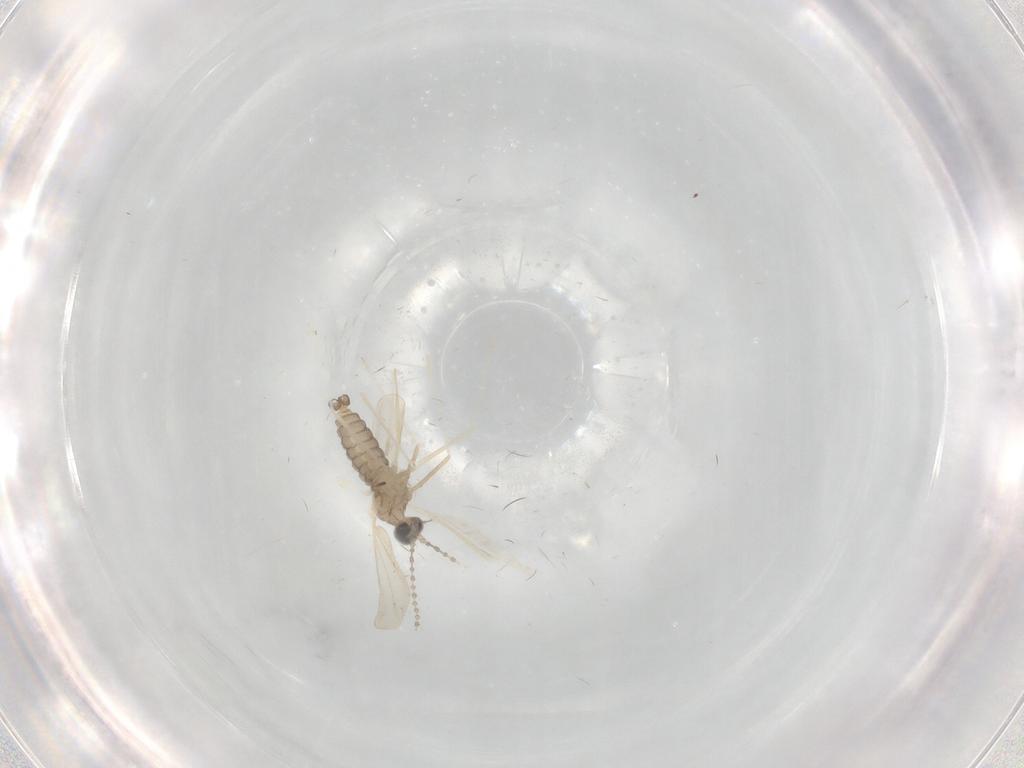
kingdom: Animalia
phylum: Arthropoda
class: Insecta
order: Diptera
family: Cecidomyiidae
